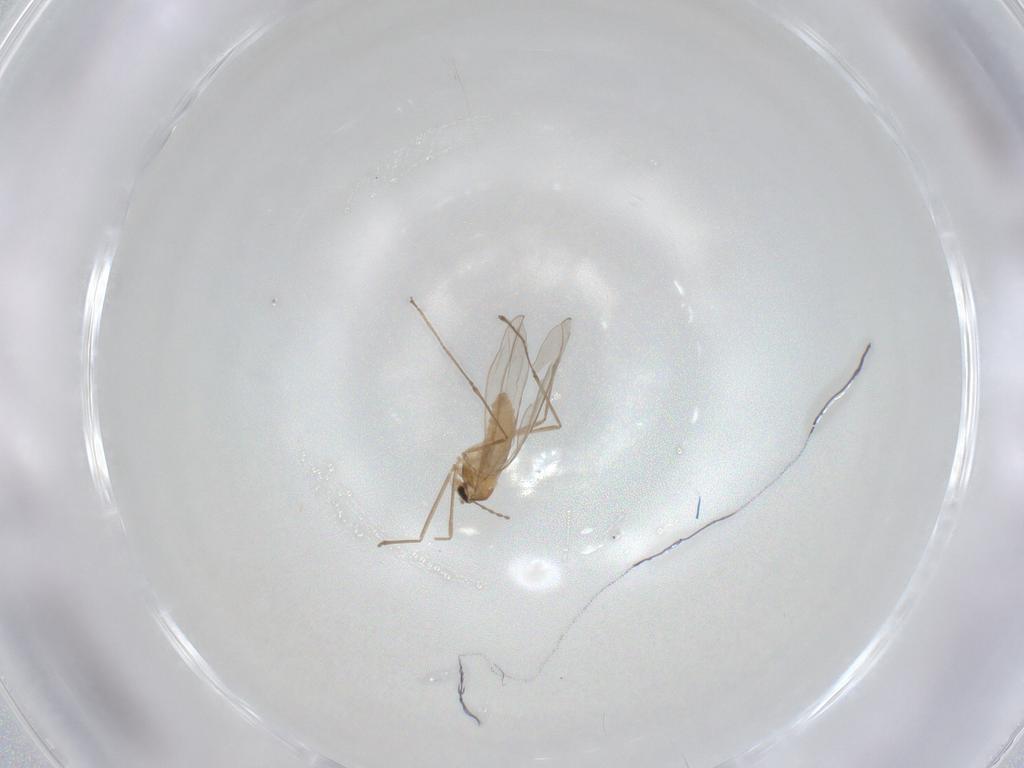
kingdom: Animalia
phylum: Arthropoda
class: Insecta
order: Diptera
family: Cecidomyiidae
